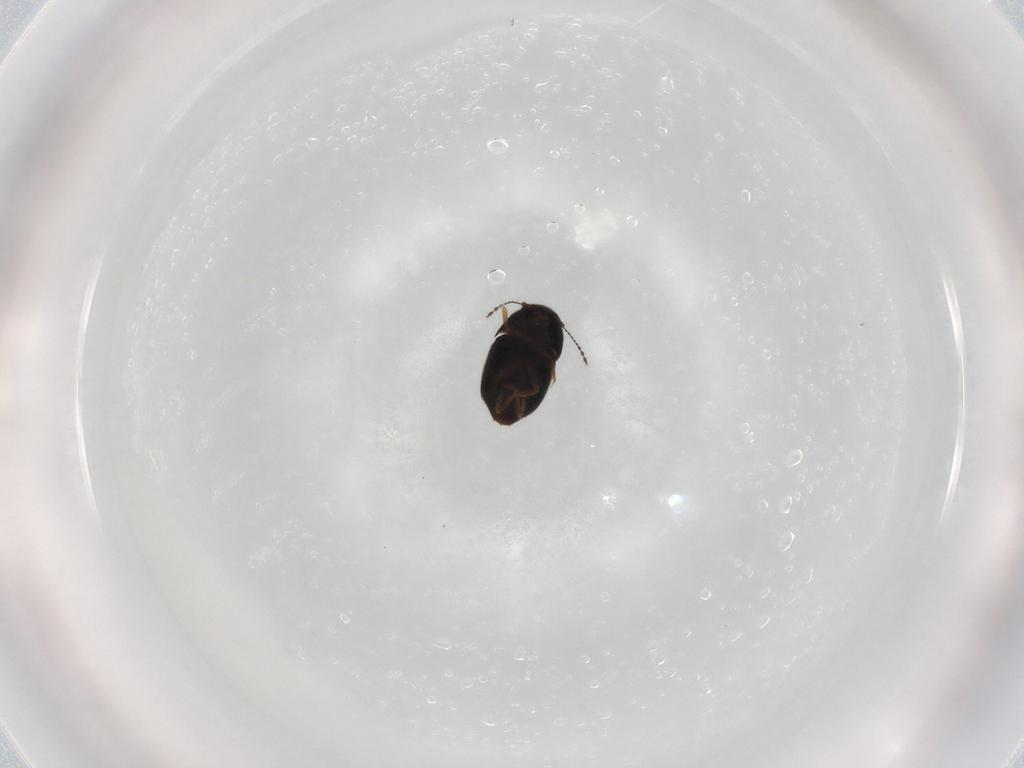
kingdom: Animalia
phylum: Arthropoda
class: Insecta
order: Coleoptera
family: Ptiliidae
